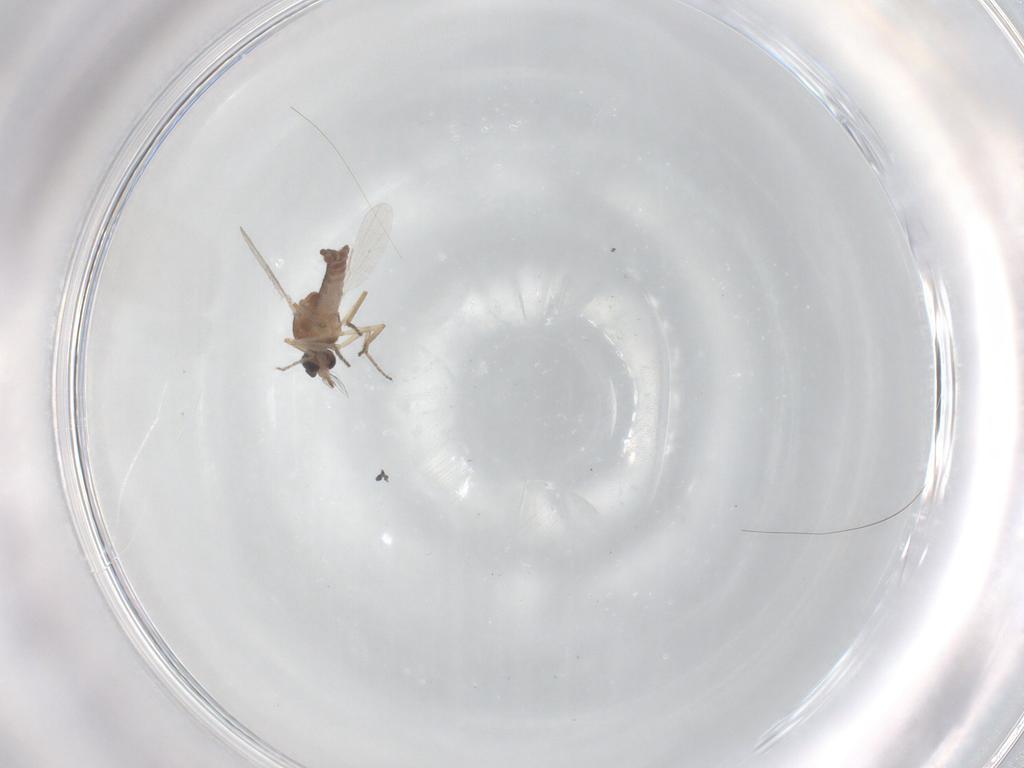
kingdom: Animalia
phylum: Arthropoda
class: Insecta
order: Diptera
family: Ceratopogonidae
